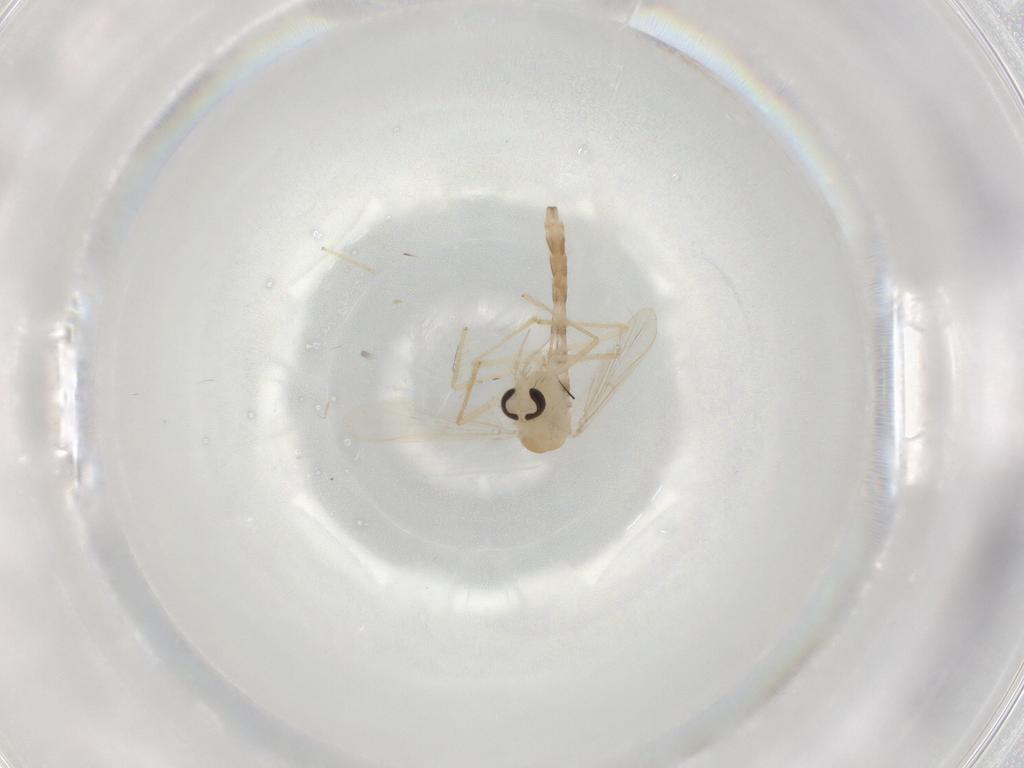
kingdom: Animalia
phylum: Arthropoda
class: Insecta
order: Diptera
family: Chironomidae
